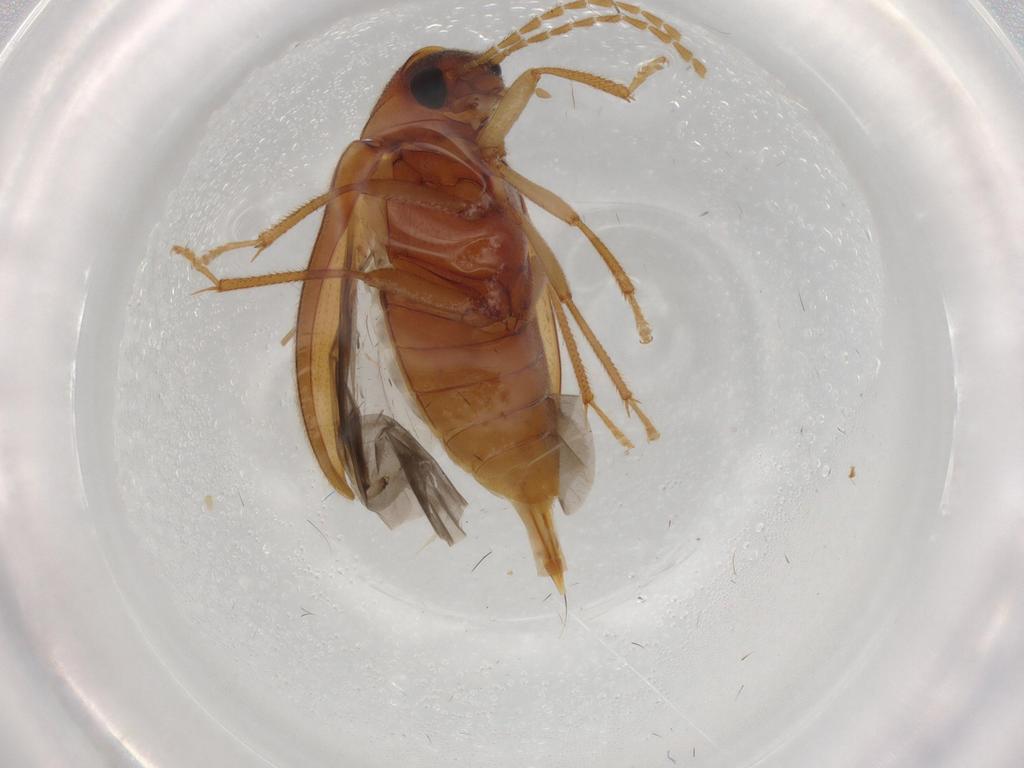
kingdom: Animalia
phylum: Arthropoda
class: Insecta
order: Coleoptera
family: Ptilodactylidae
